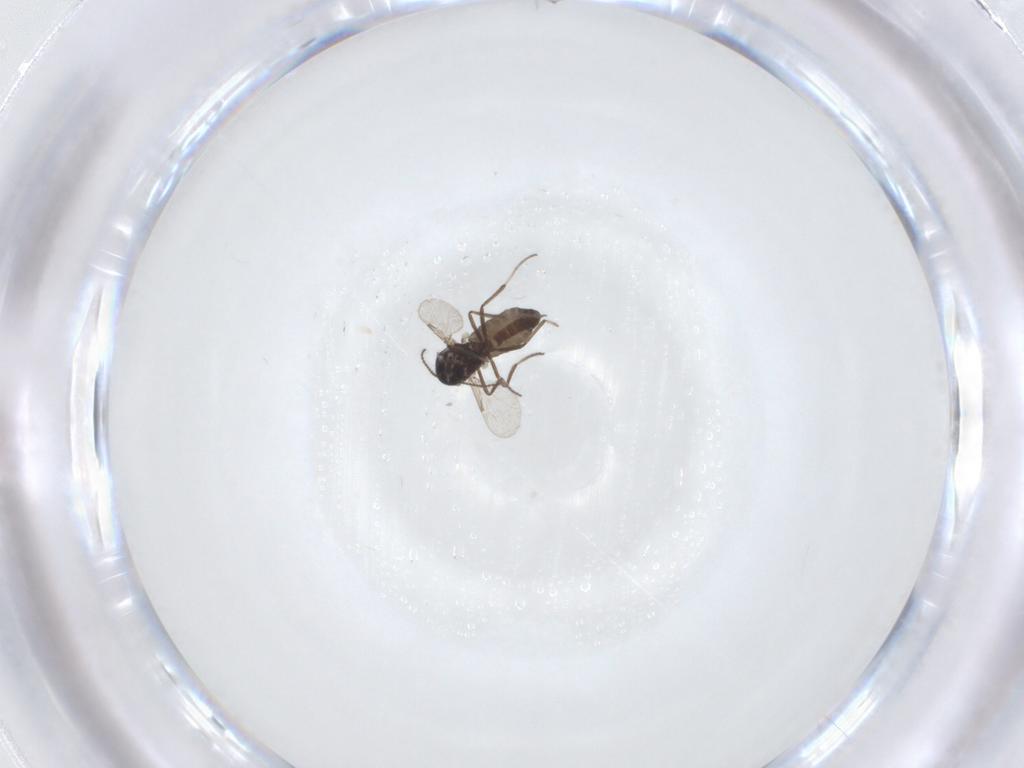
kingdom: Animalia
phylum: Arthropoda
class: Insecta
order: Diptera
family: Ceratopogonidae
